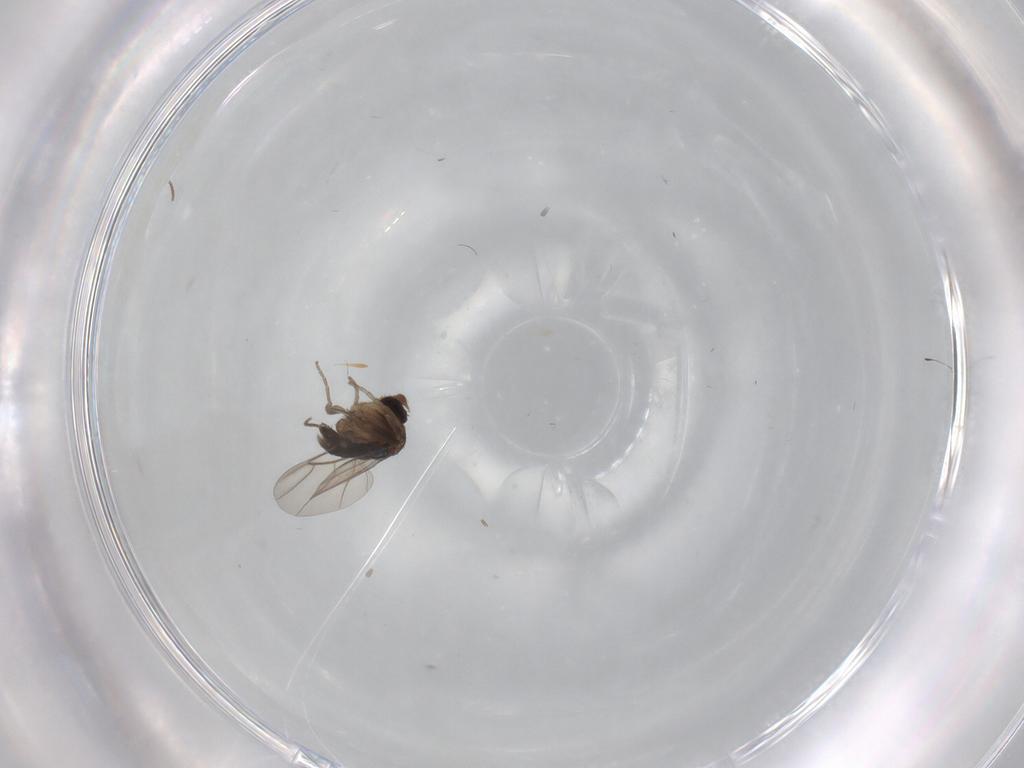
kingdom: Animalia
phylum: Arthropoda
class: Insecta
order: Diptera
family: Phoridae
